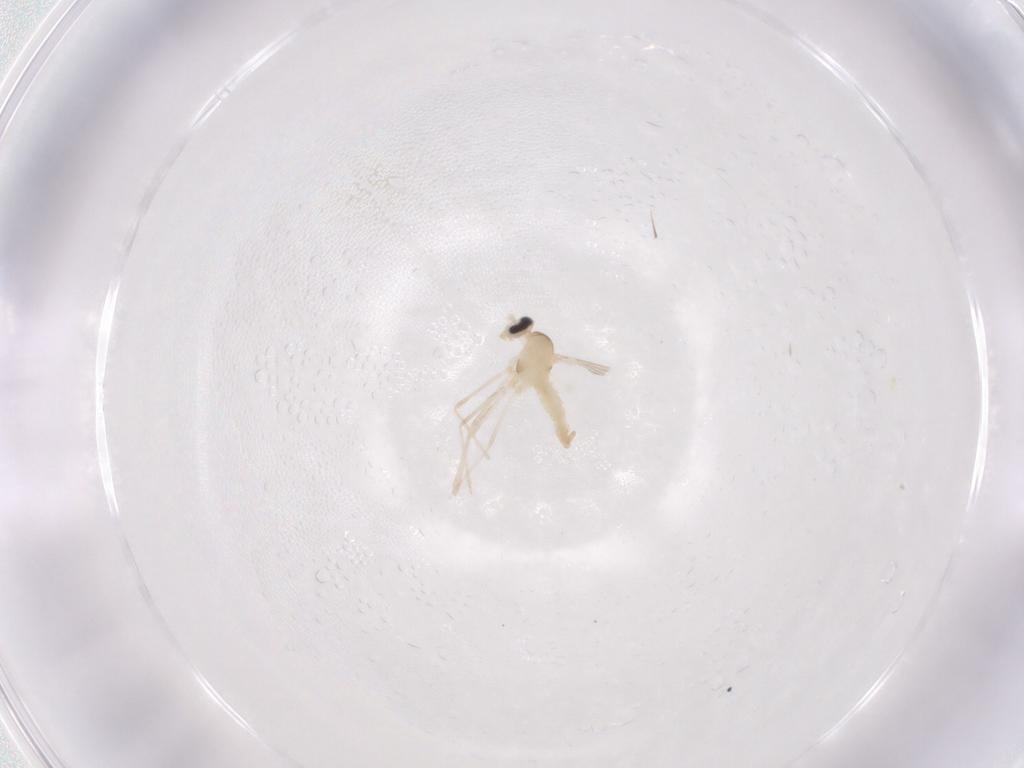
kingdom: Animalia
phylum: Arthropoda
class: Insecta
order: Diptera
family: Cecidomyiidae
